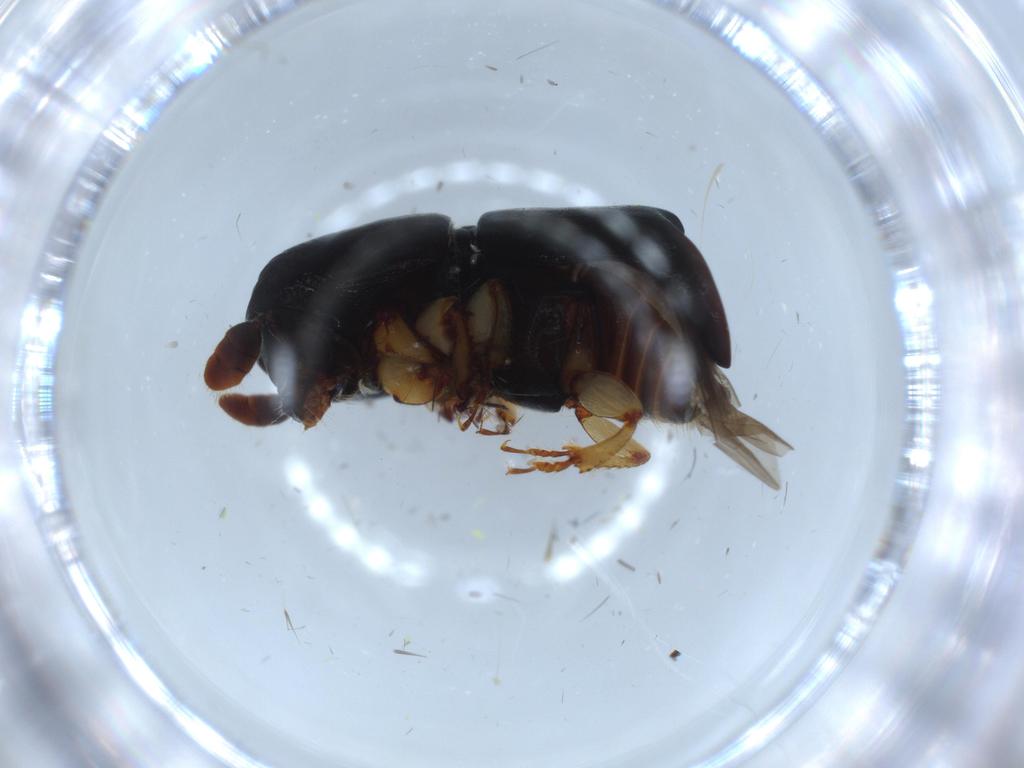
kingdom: Animalia
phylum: Arthropoda
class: Insecta
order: Coleoptera
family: Curculionidae
